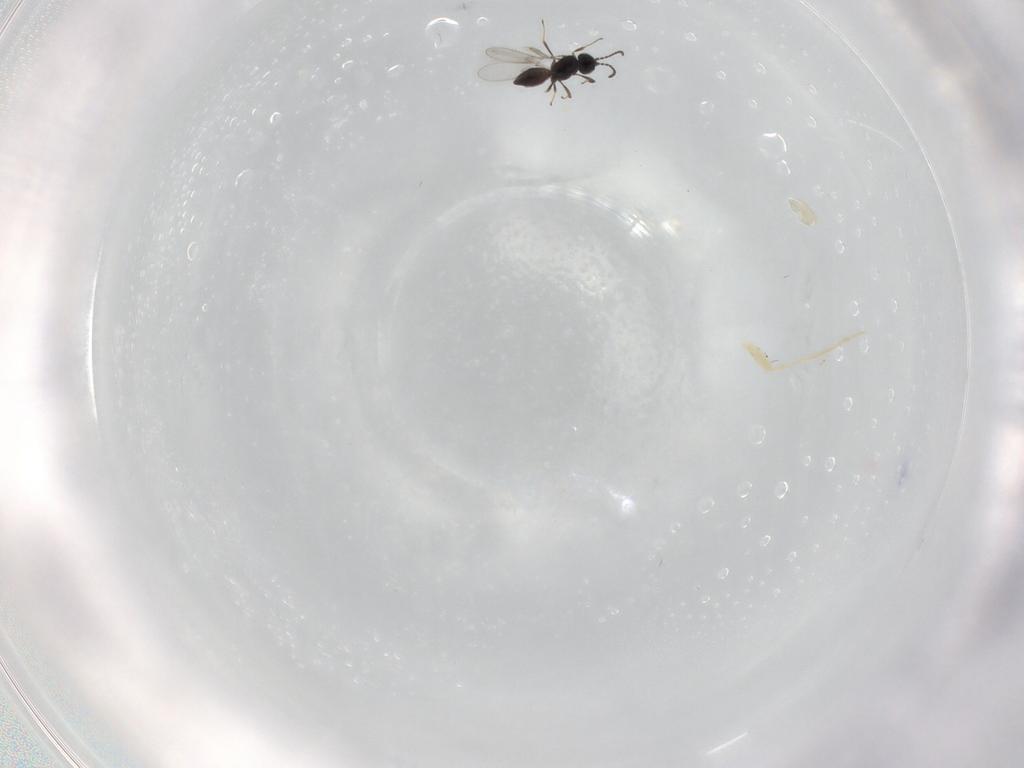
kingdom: Animalia
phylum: Arthropoda
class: Insecta
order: Hymenoptera
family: Scelionidae
